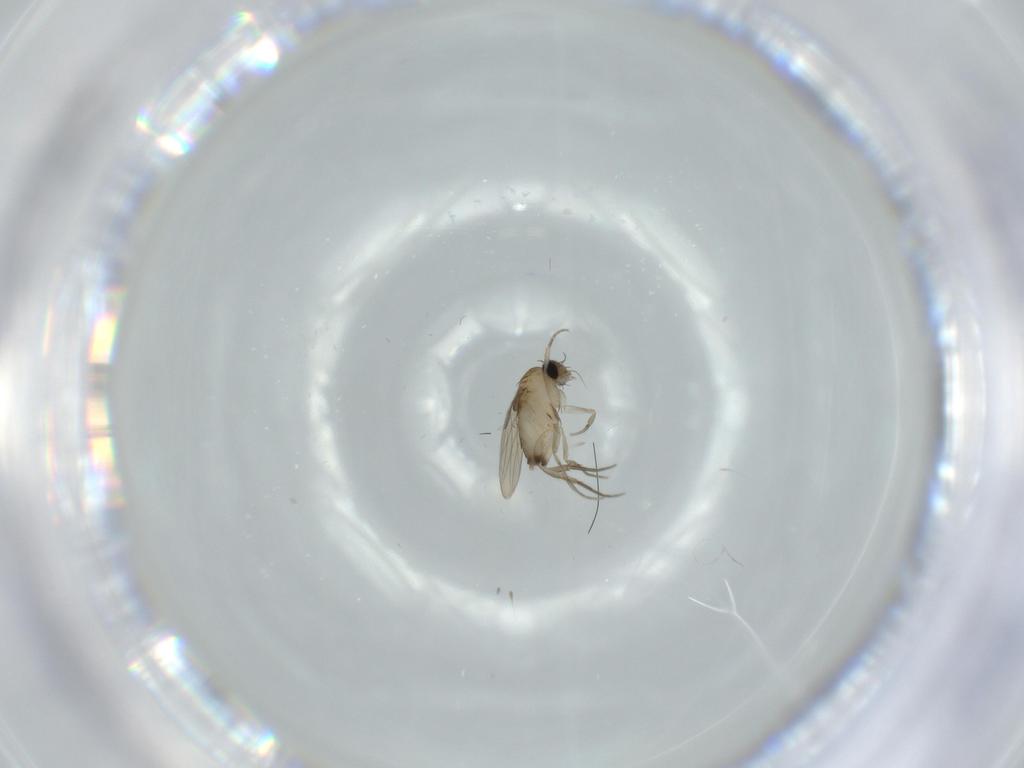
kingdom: Animalia
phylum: Arthropoda
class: Insecta
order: Diptera
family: Phoridae
